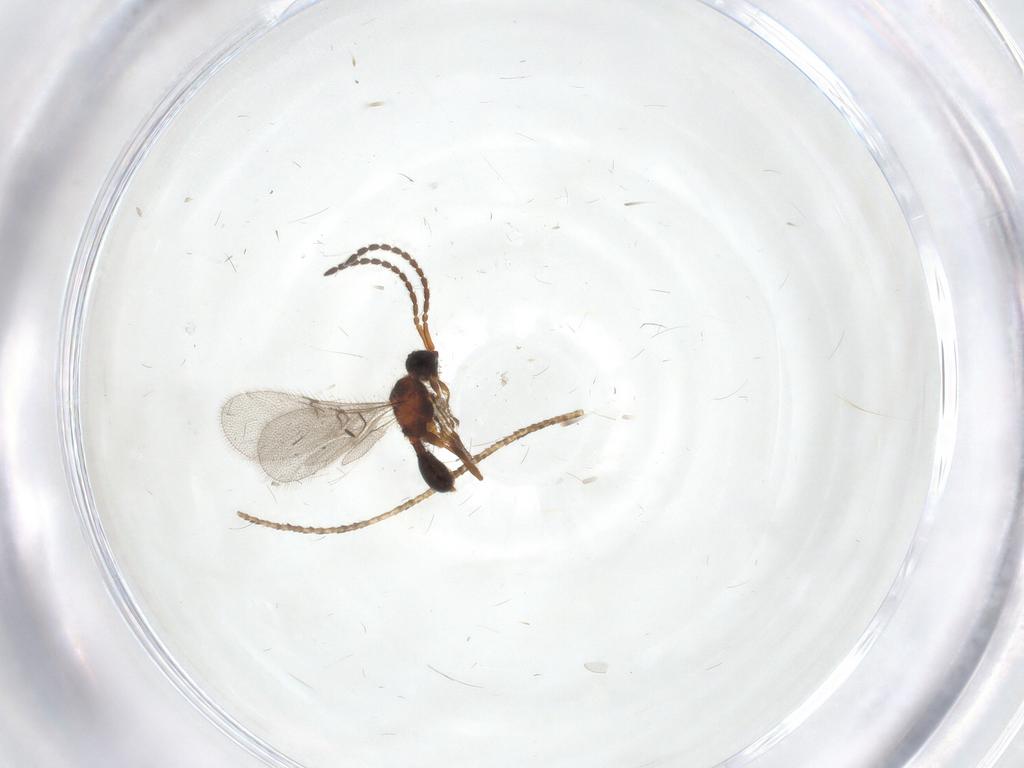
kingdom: Animalia
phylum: Arthropoda
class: Insecta
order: Hymenoptera
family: Diapriidae
